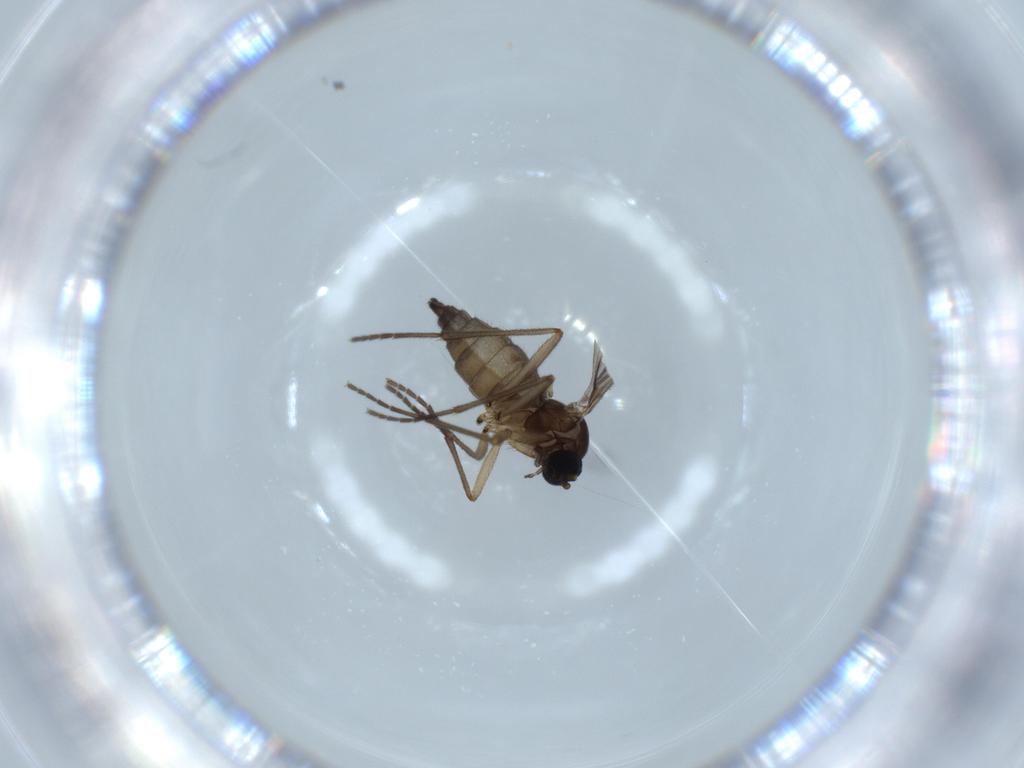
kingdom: Animalia
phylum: Arthropoda
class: Insecta
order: Diptera
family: Sciaridae
